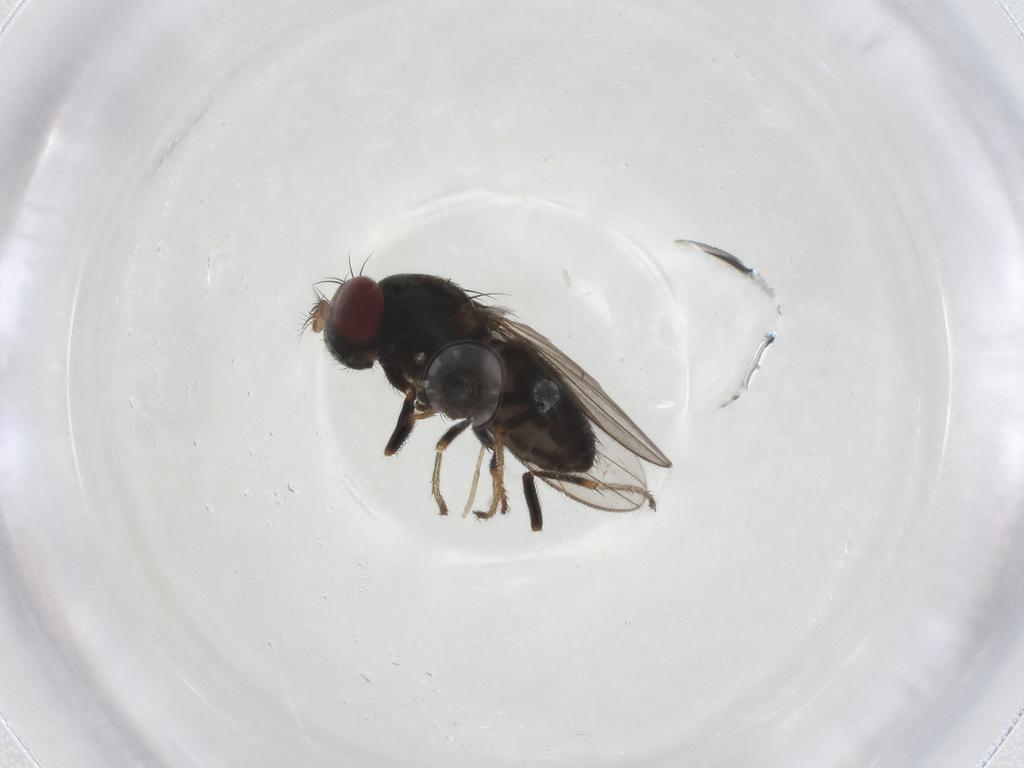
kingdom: Animalia
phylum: Arthropoda
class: Insecta
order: Diptera
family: Ephydridae
